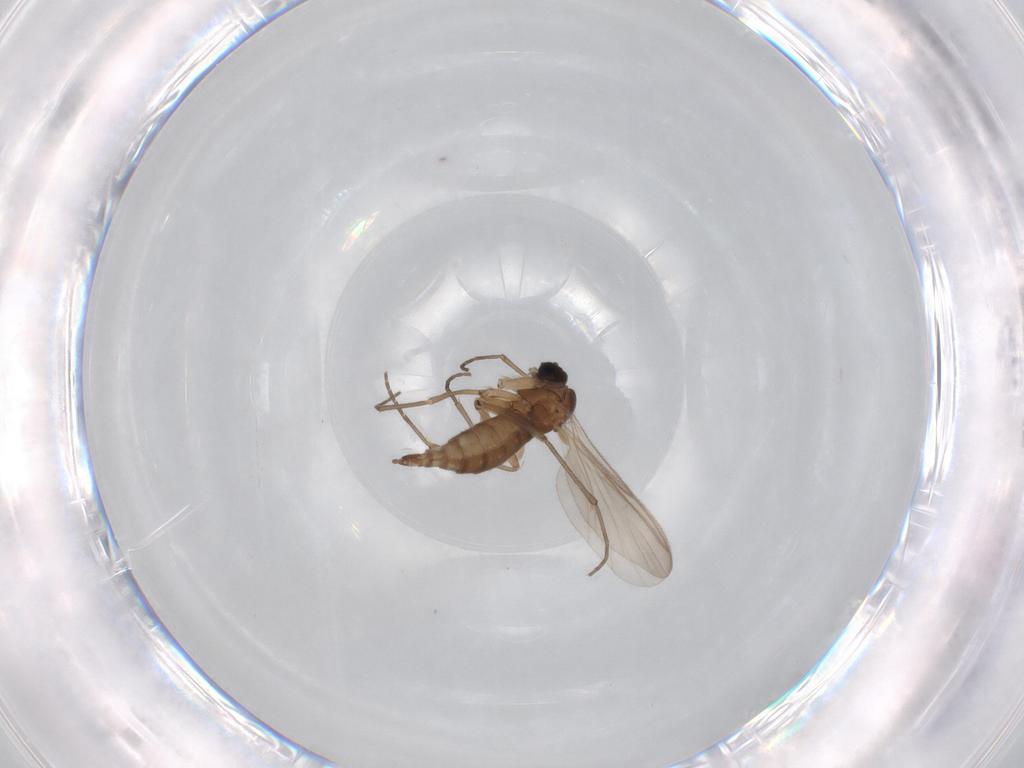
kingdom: Animalia
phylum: Arthropoda
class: Insecta
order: Diptera
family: Drosophilidae
